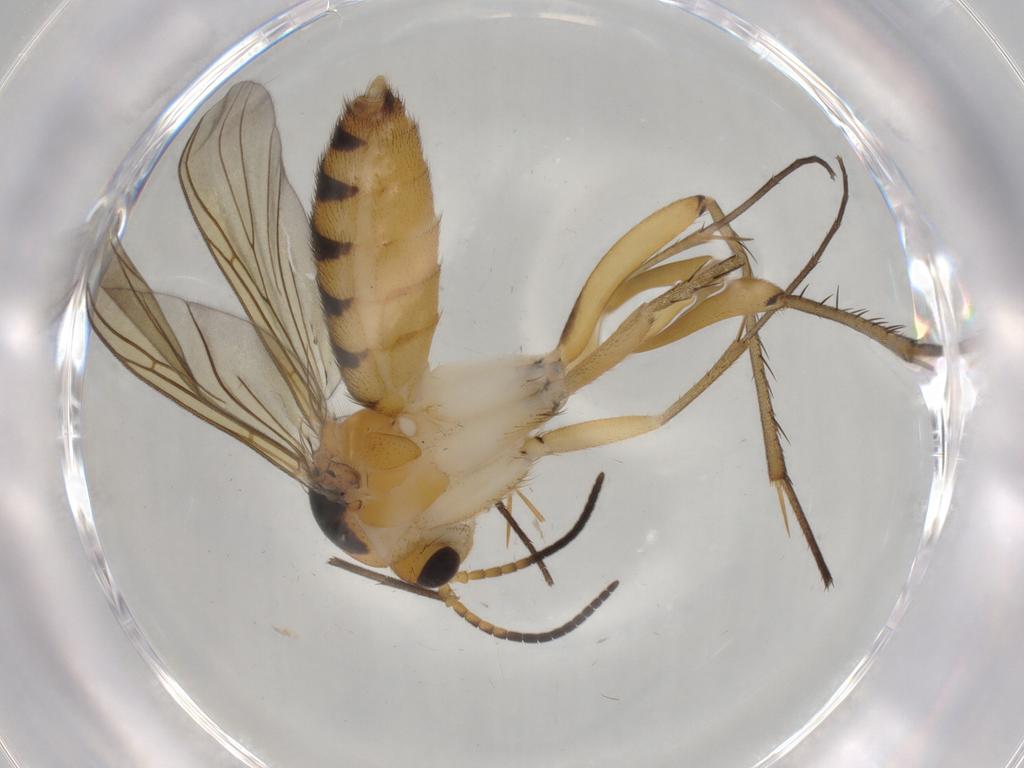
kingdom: Animalia
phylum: Arthropoda
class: Insecta
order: Diptera
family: Mycetophilidae
